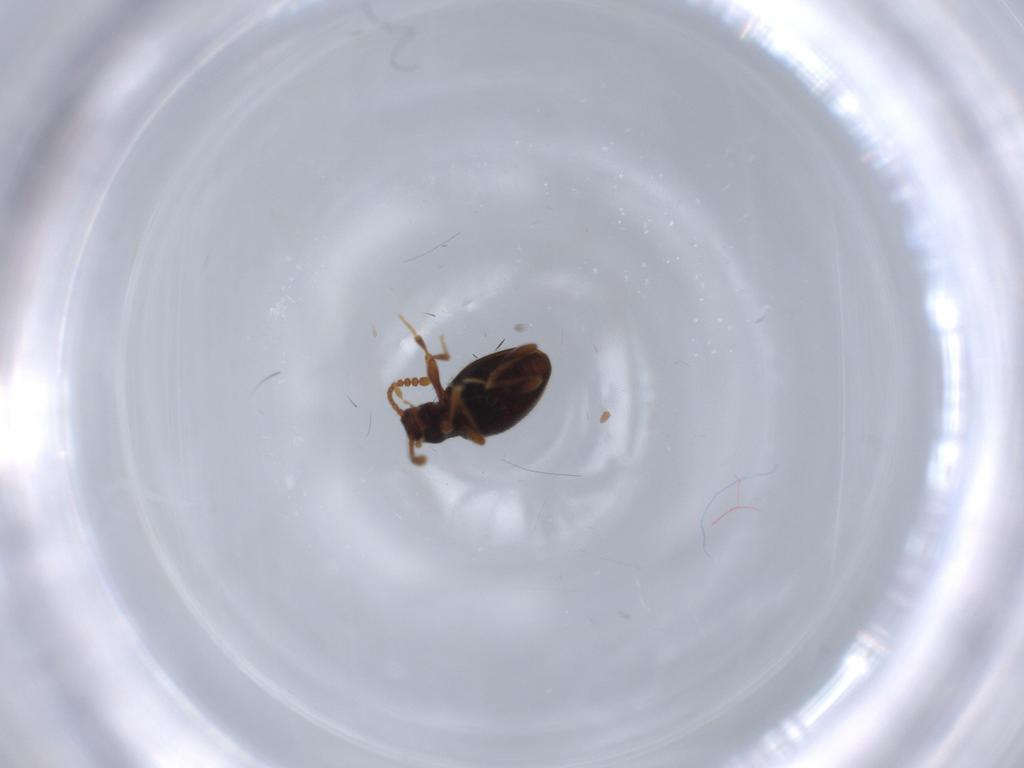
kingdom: Animalia
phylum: Arthropoda
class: Insecta
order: Coleoptera
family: Staphylinidae
